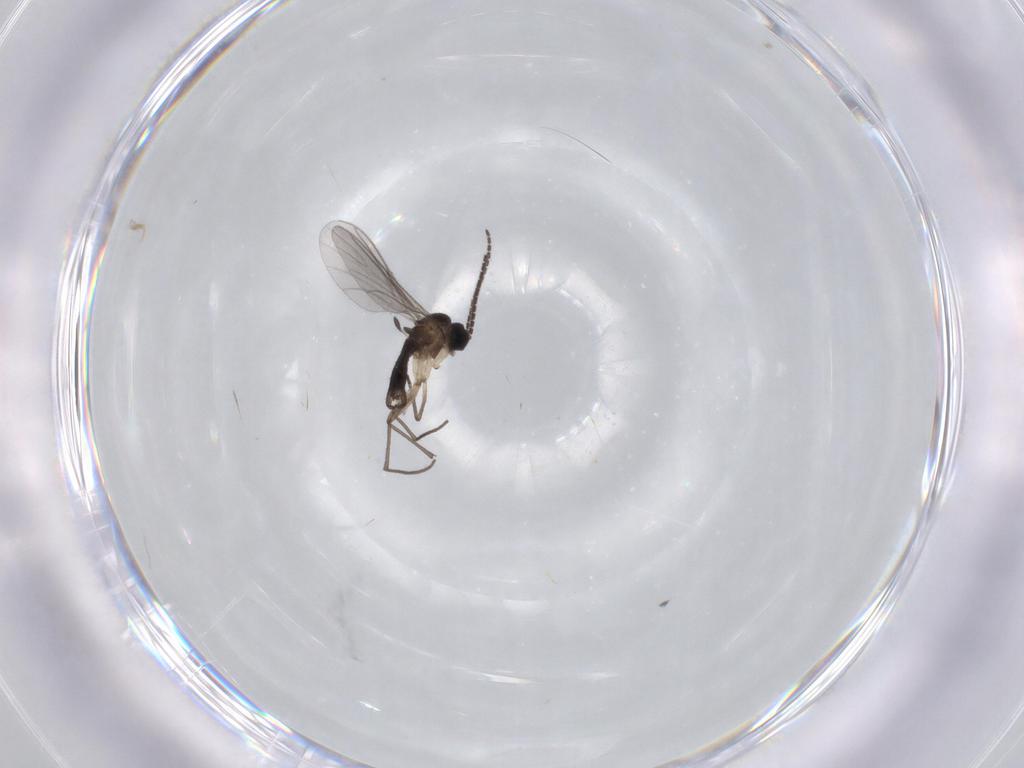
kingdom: Animalia
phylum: Arthropoda
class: Insecta
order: Diptera
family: Sciaridae
